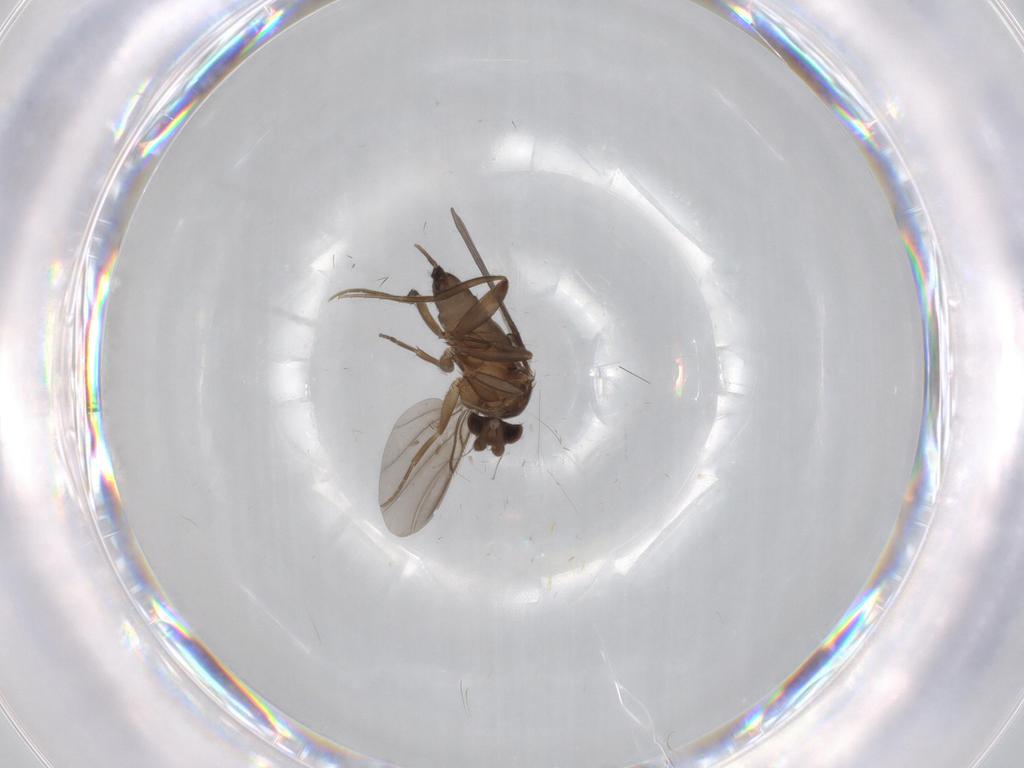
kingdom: Animalia
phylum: Arthropoda
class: Insecta
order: Diptera
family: Phoridae
